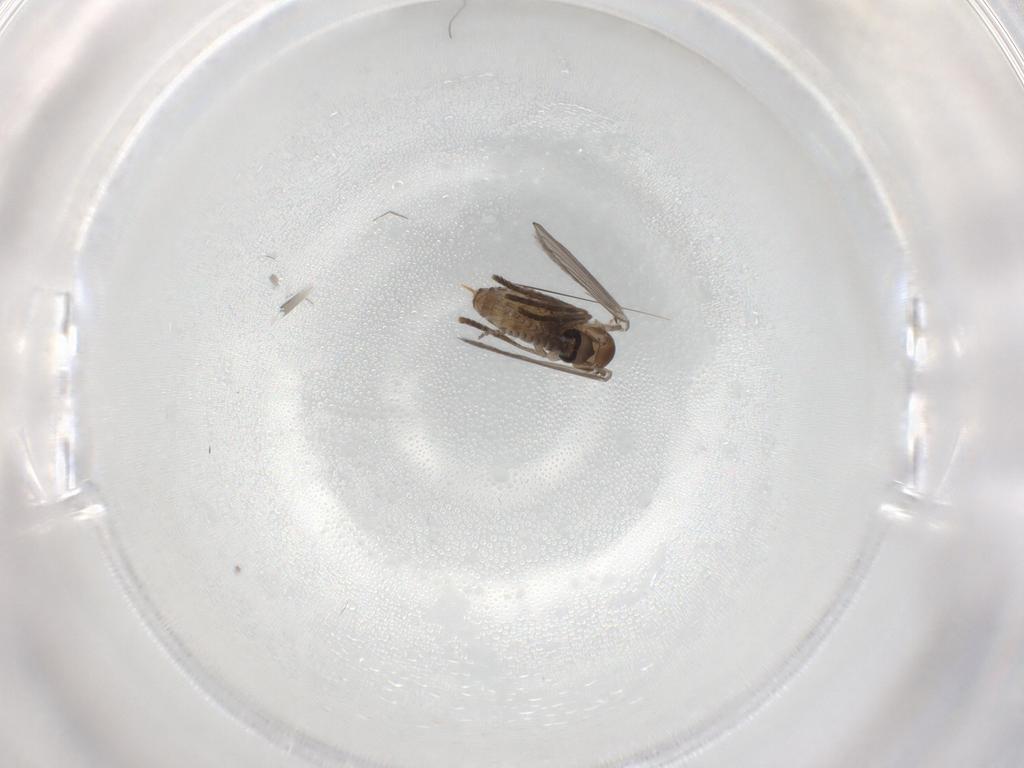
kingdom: Animalia
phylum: Arthropoda
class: Insecta
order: Diptera
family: Psychodidae
